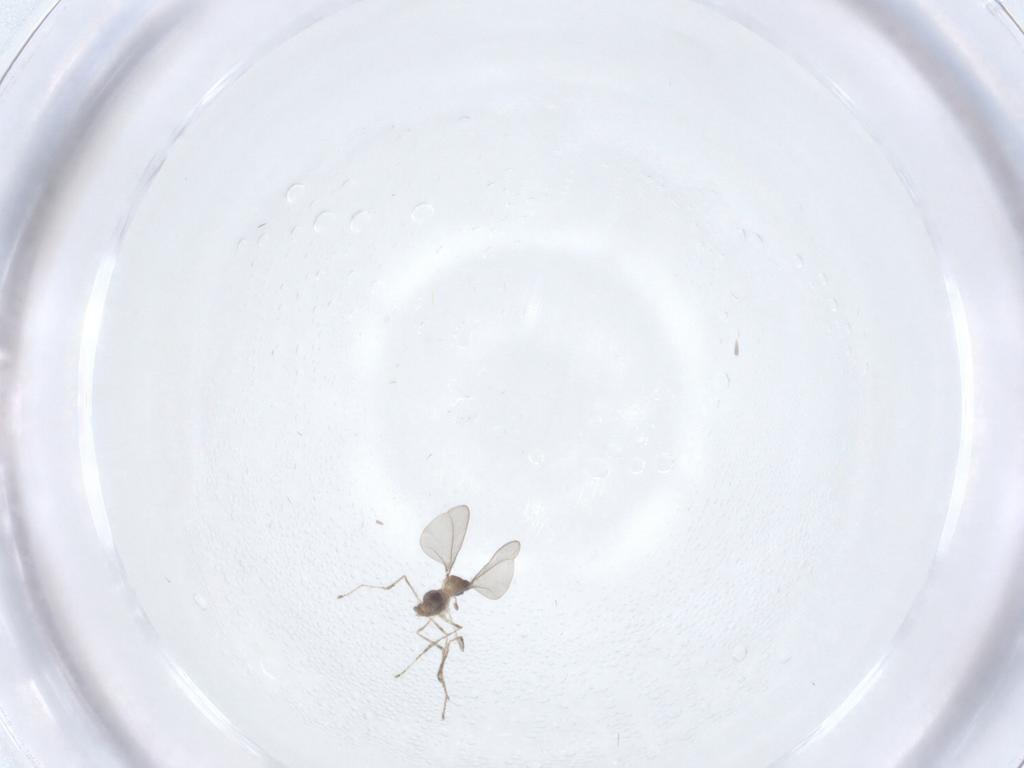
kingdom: Animalia
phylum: Arthropoda
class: Insecta
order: Diptera
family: Cecidomyiidae
